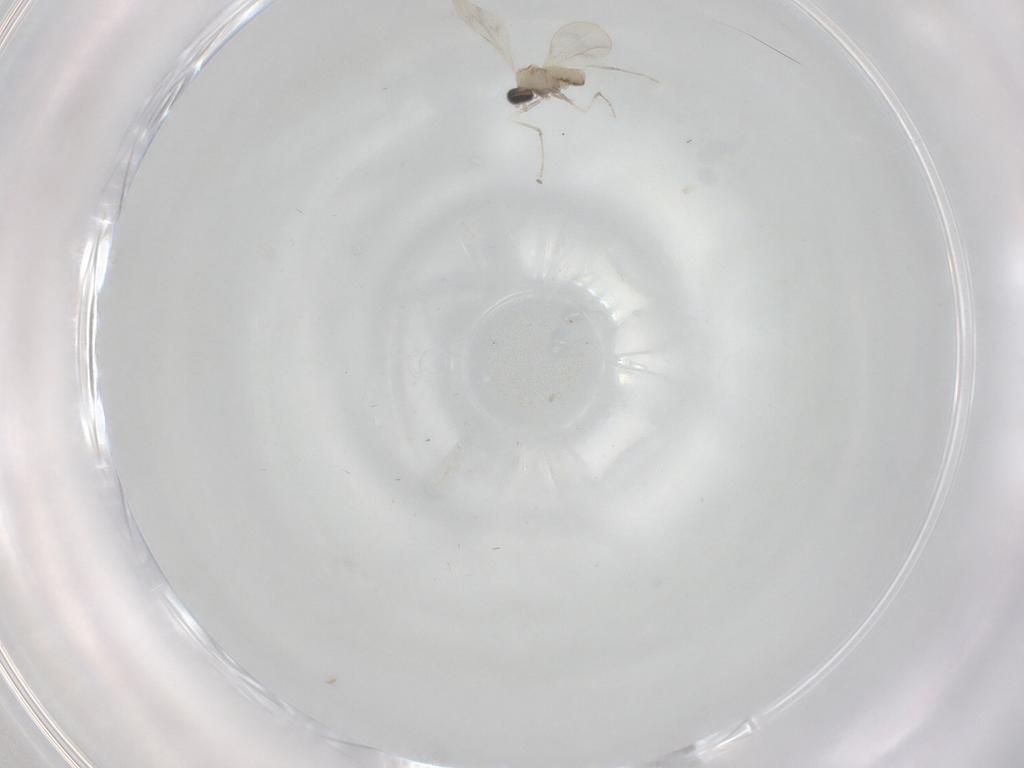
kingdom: Animalia
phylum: Arthropoda
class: Insecta
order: Diptera
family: Cecidomyiidae
